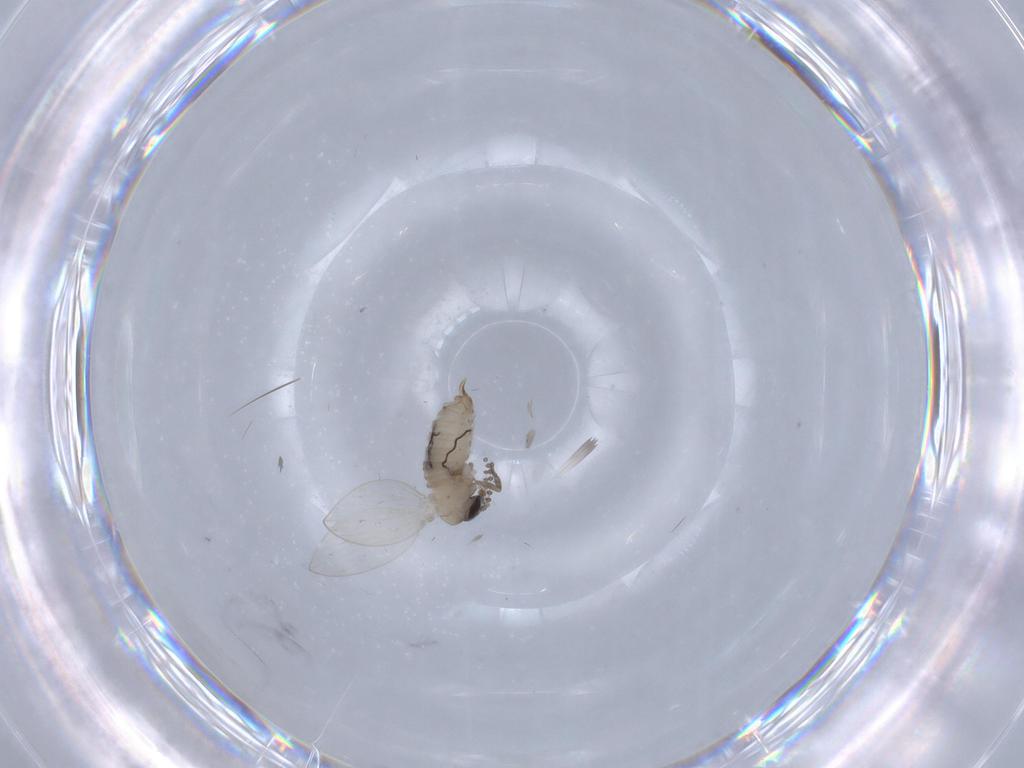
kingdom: Animalia
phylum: Arthropoda
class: Insecta
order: Diptera
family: Psychodidae
